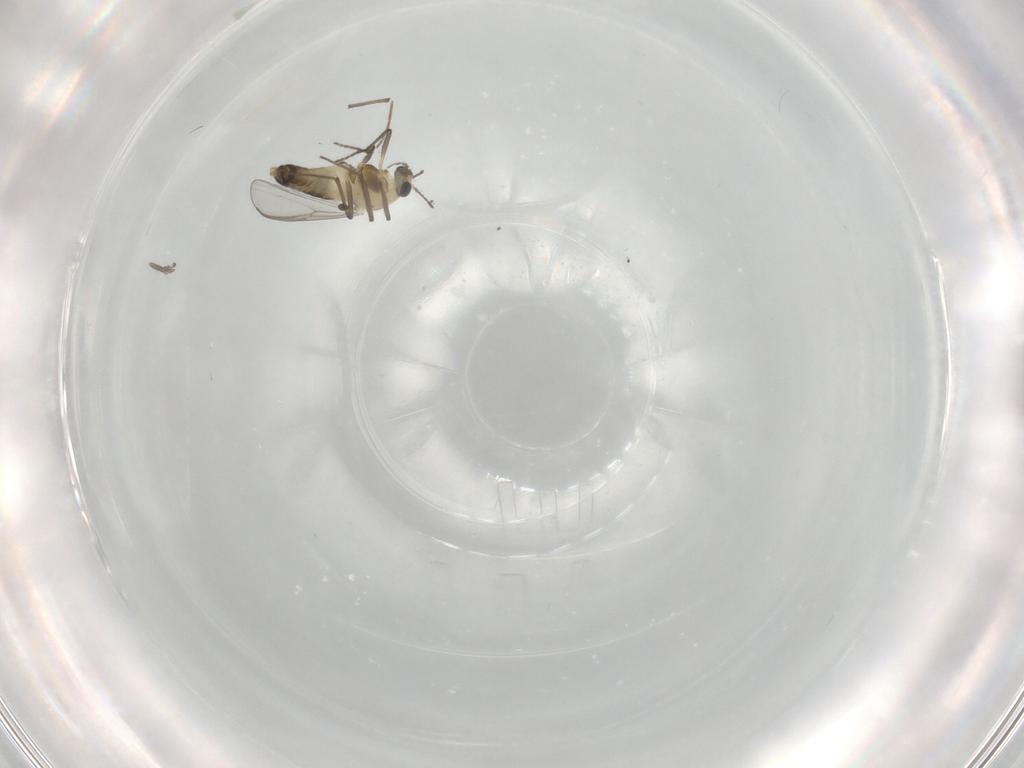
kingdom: Animalia
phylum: Arthropoda
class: Insecta
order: Diptera
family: Chironomidae
